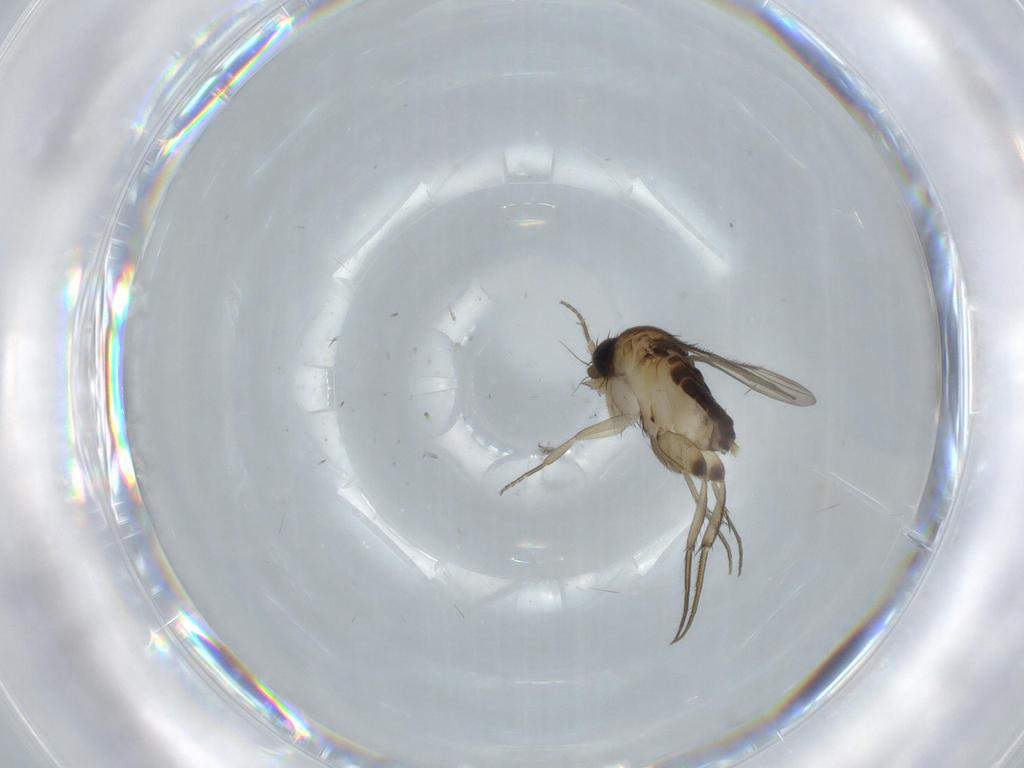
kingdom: Animalia
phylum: Arthropoda
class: Insecta
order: Diptera
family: Phoridae
